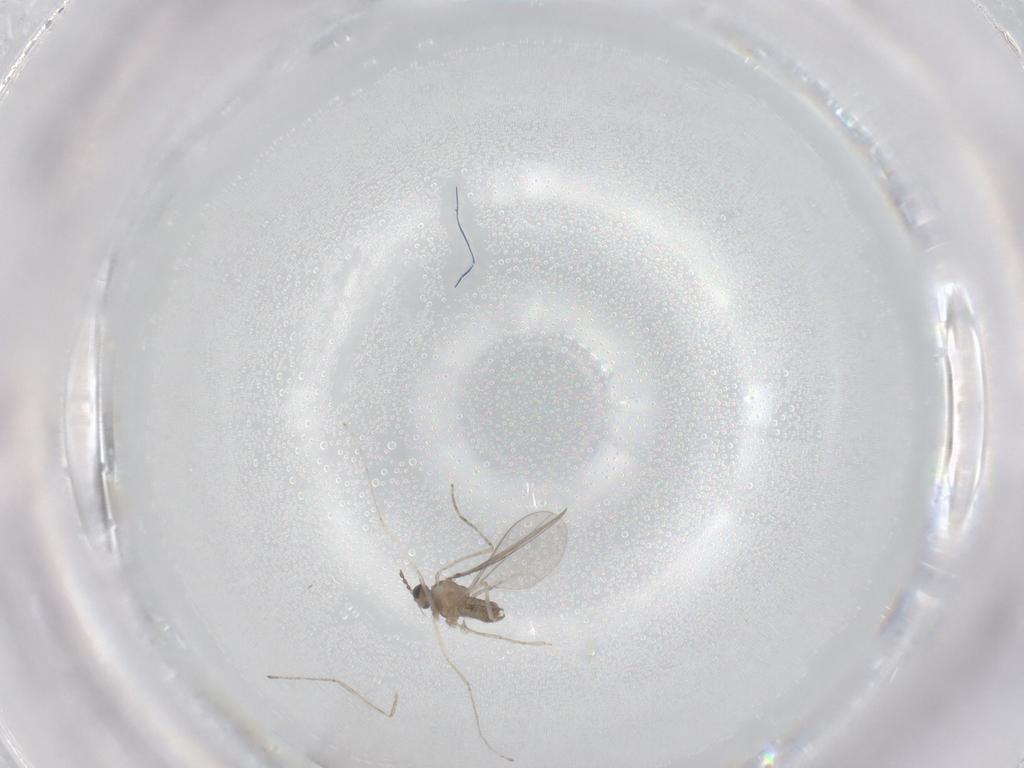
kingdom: Animalia
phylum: Arthropoda
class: Insecta
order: Diptera
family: Cecidomyiidae
